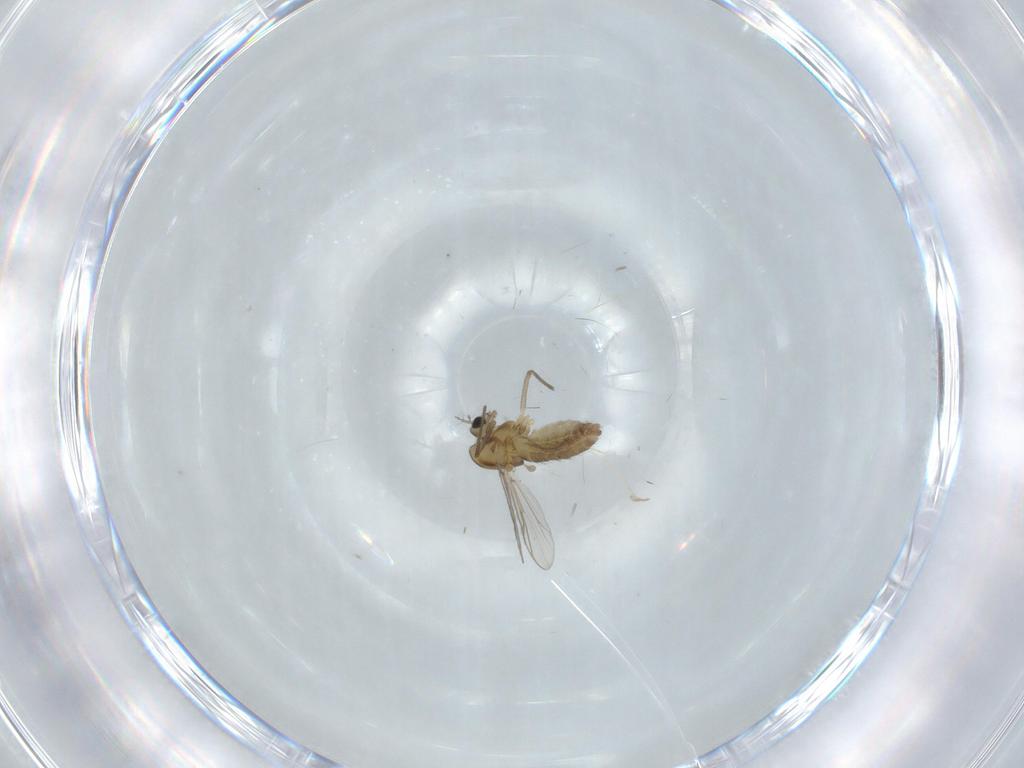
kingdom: Animalia
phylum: Arthropoda
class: Insecta
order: Diptera
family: Chironomidae
